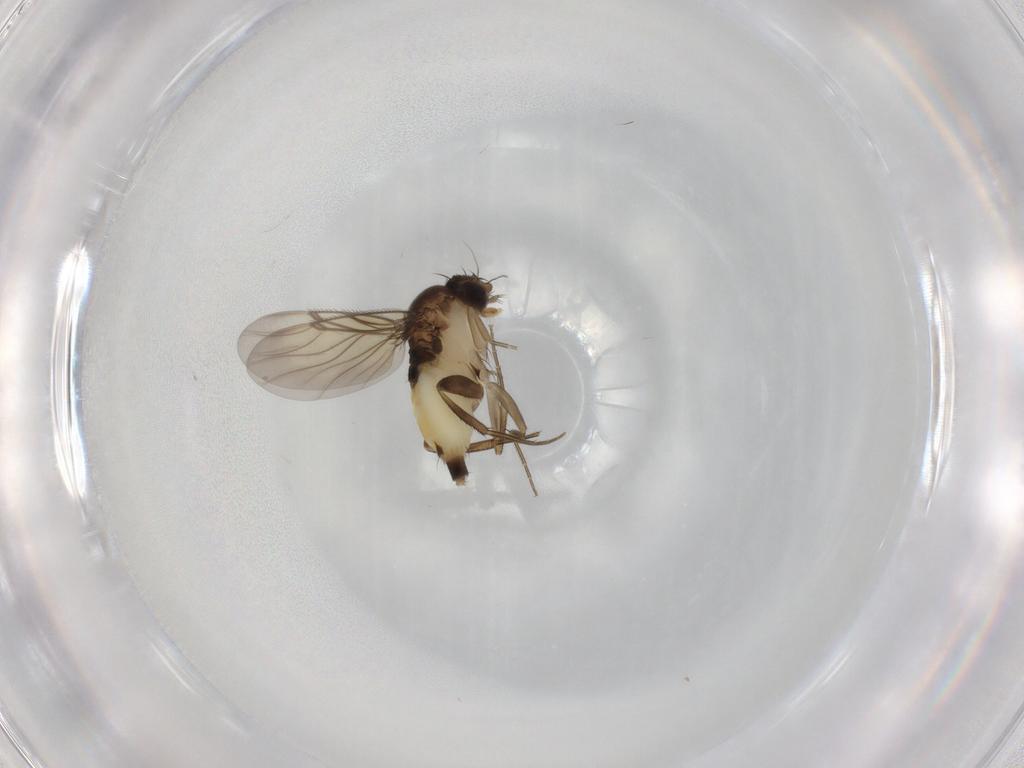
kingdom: Animalia
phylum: Arthropoda
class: Insecta
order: Diptera
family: Phoridae
